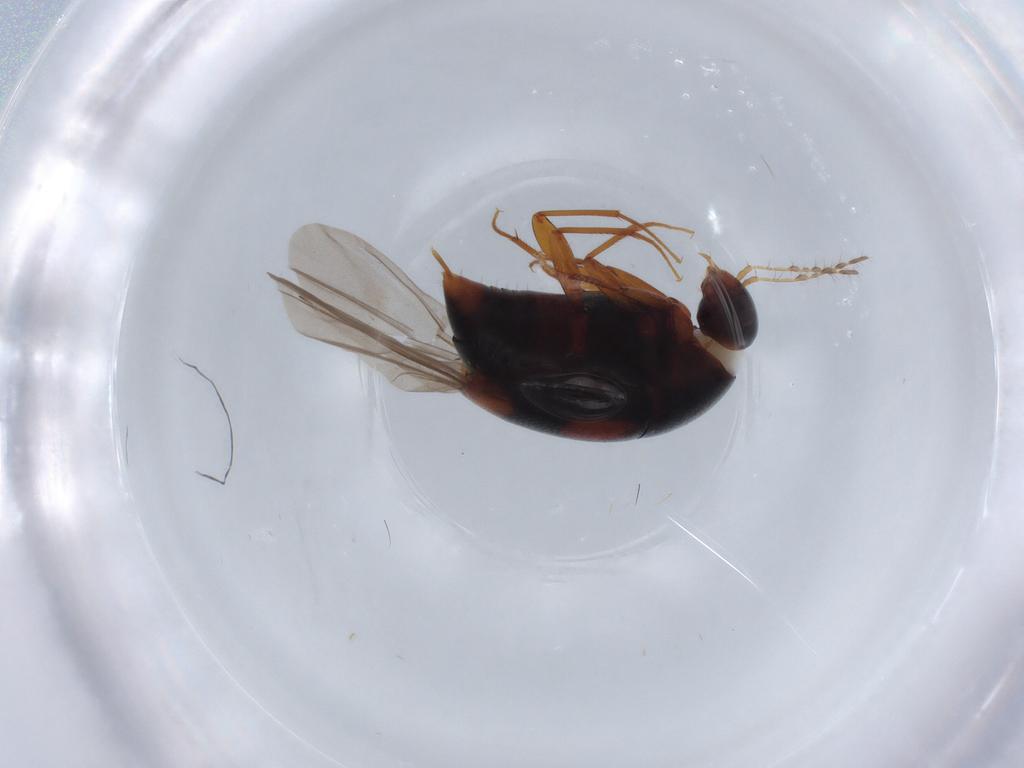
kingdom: Animalia
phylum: Arthropoda
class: Insecta
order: Coleoptera
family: Staphylinidae
